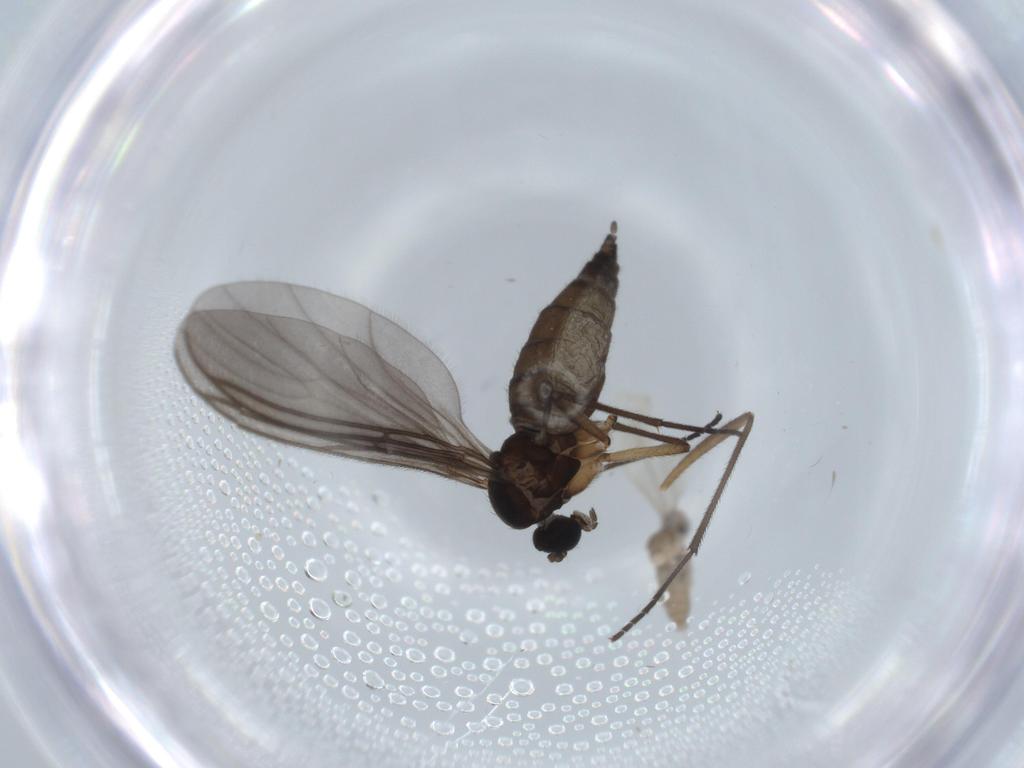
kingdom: Animalia
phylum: Arthropoda
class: Insecta
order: Diptera
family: Sciaridae
